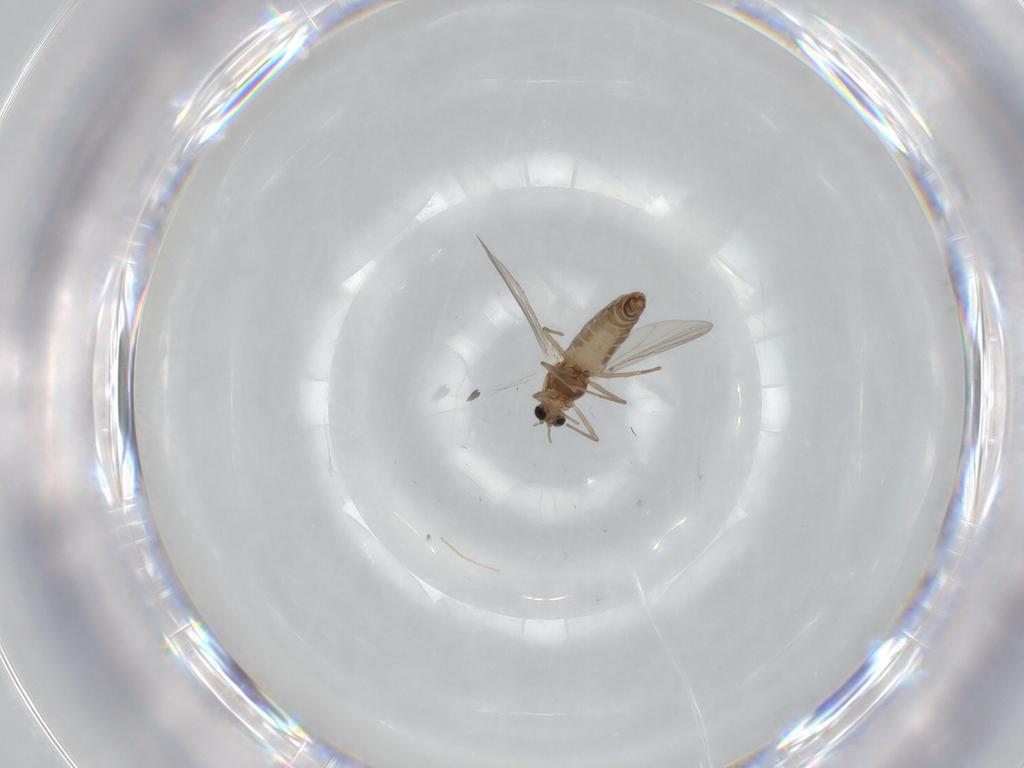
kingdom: Animalia
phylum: Arthropoda
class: Insecta
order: Diptera
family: Chironomidae
